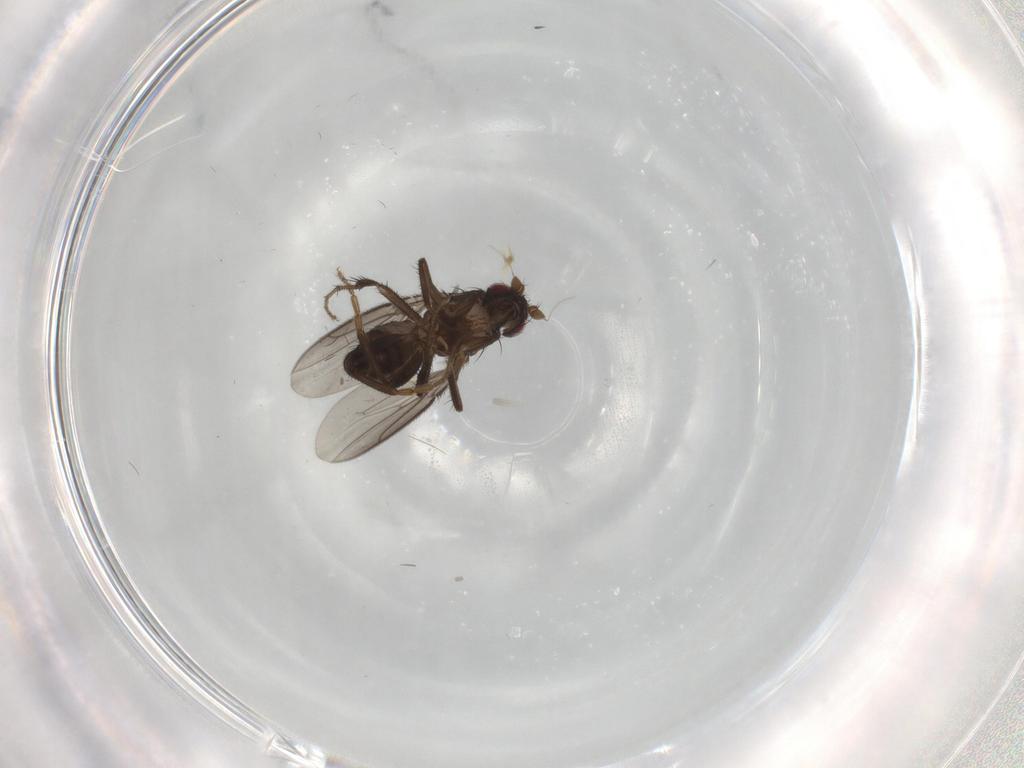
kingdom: Animalia
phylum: Arthropoda
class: Insecta
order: Diptera
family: Sphaeroceridae
